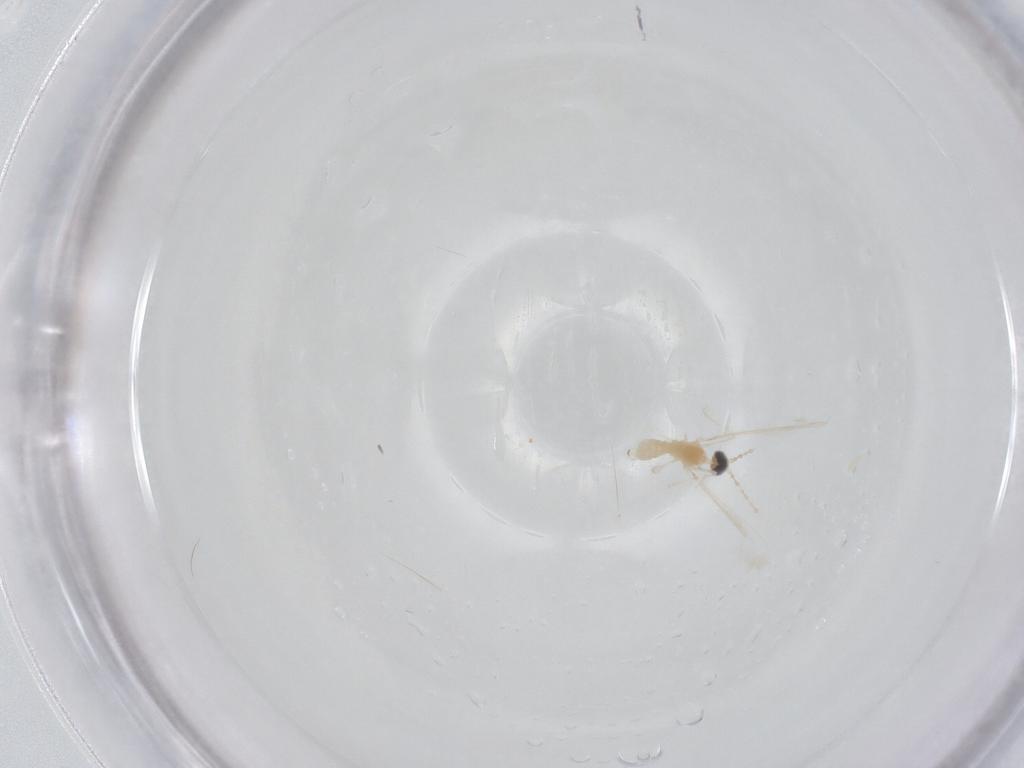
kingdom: Animalia
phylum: Arthropoda
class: Insecta
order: Diptera
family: Cecidomyiidae
